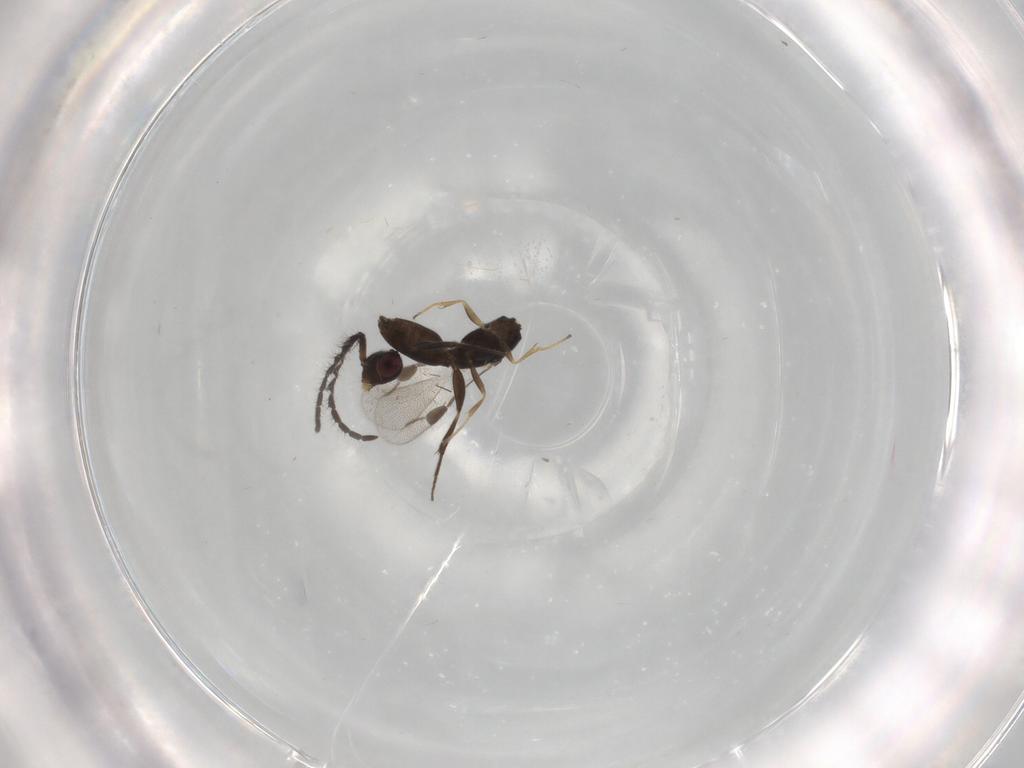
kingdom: Animalia
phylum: Arthropoda
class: Insecta
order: Hymenoptera
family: Megaspilidae
